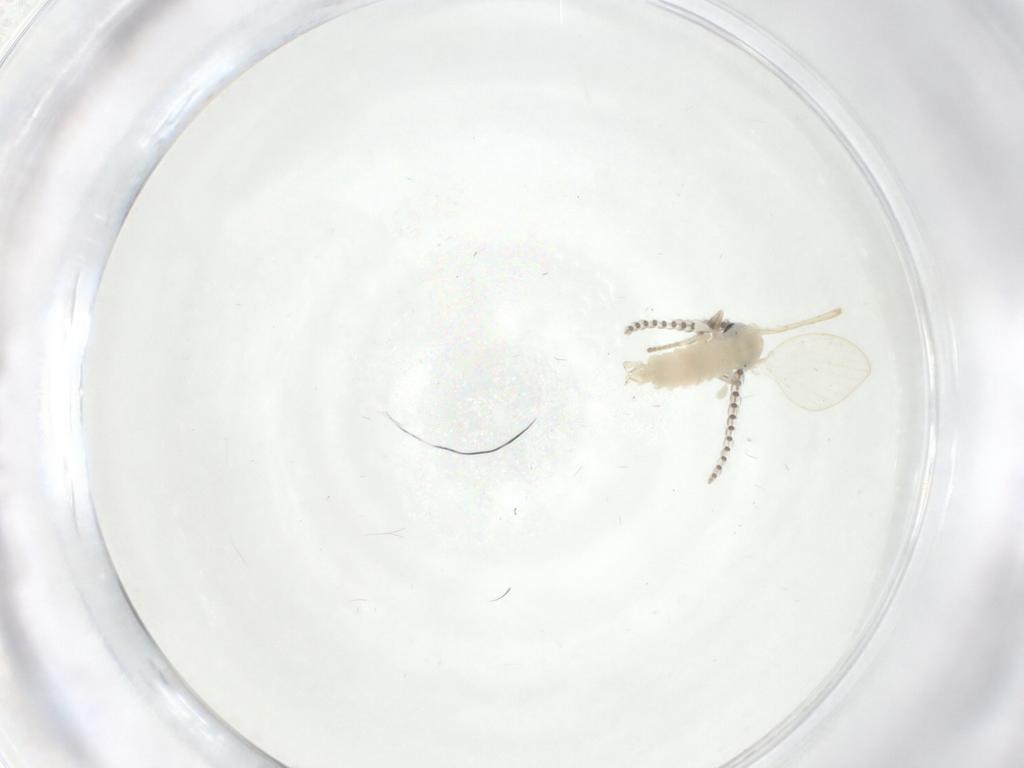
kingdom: Animalia
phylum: Arthropoda
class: Insecta
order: Diptera
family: Psychodidae
